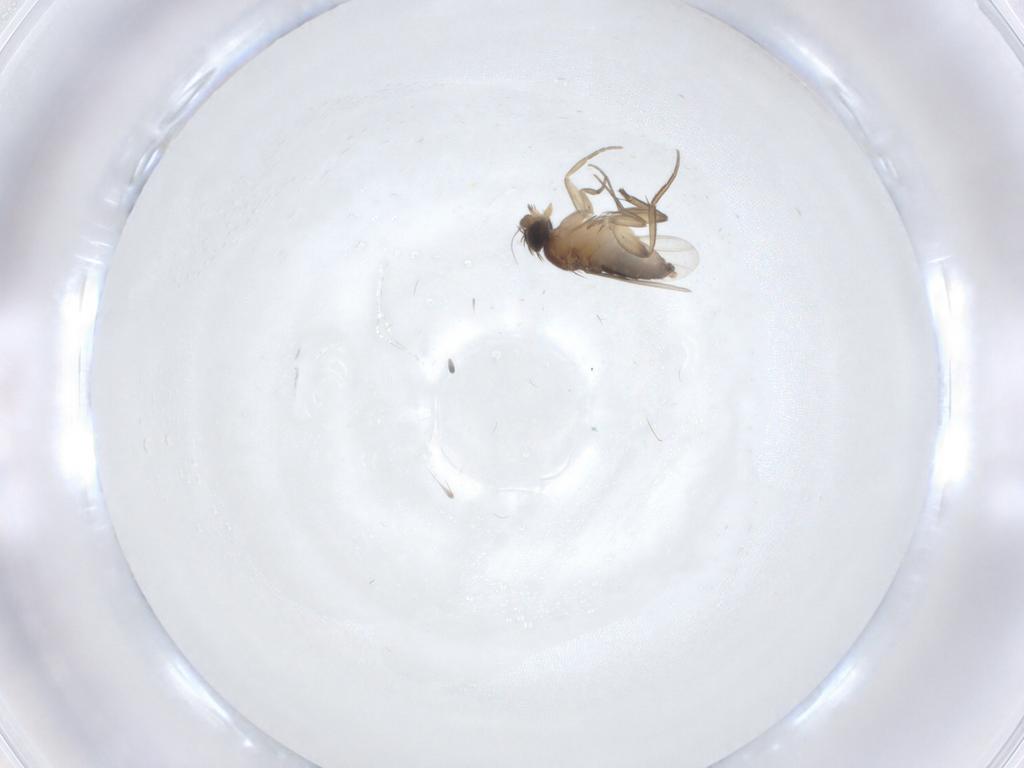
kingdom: Animalia
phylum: Arthropoda
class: Insecta
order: Diptera
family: Phoridae
